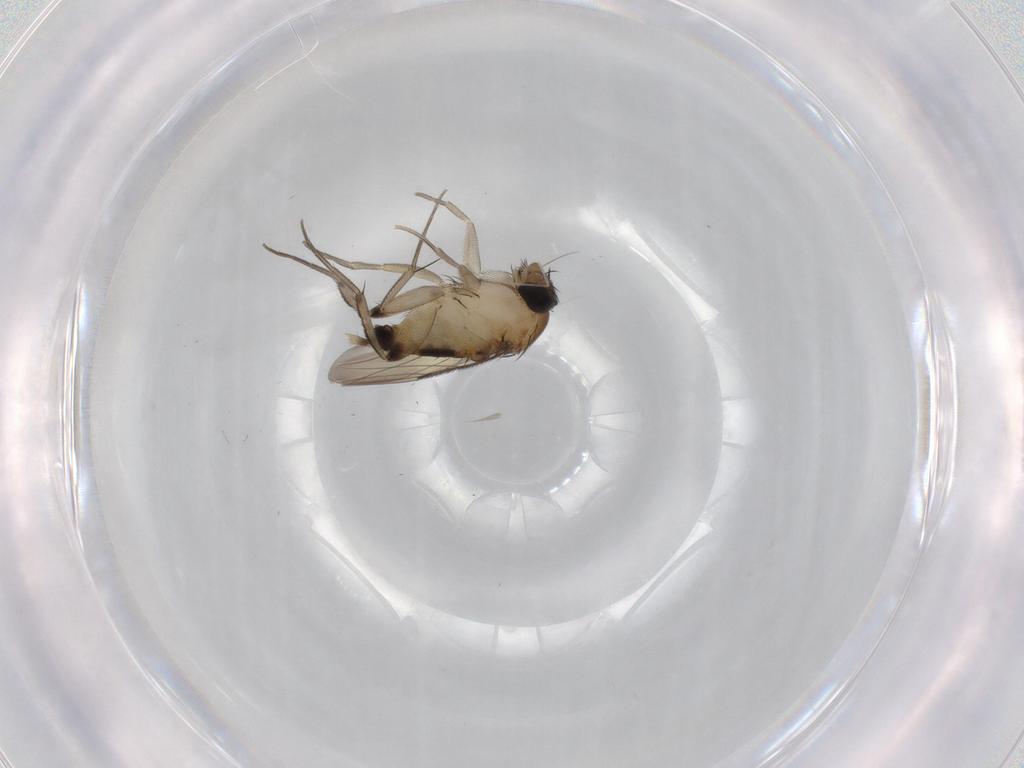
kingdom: Animalia
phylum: Arthropoda
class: Insecta
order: Diptera
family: Phoridae
